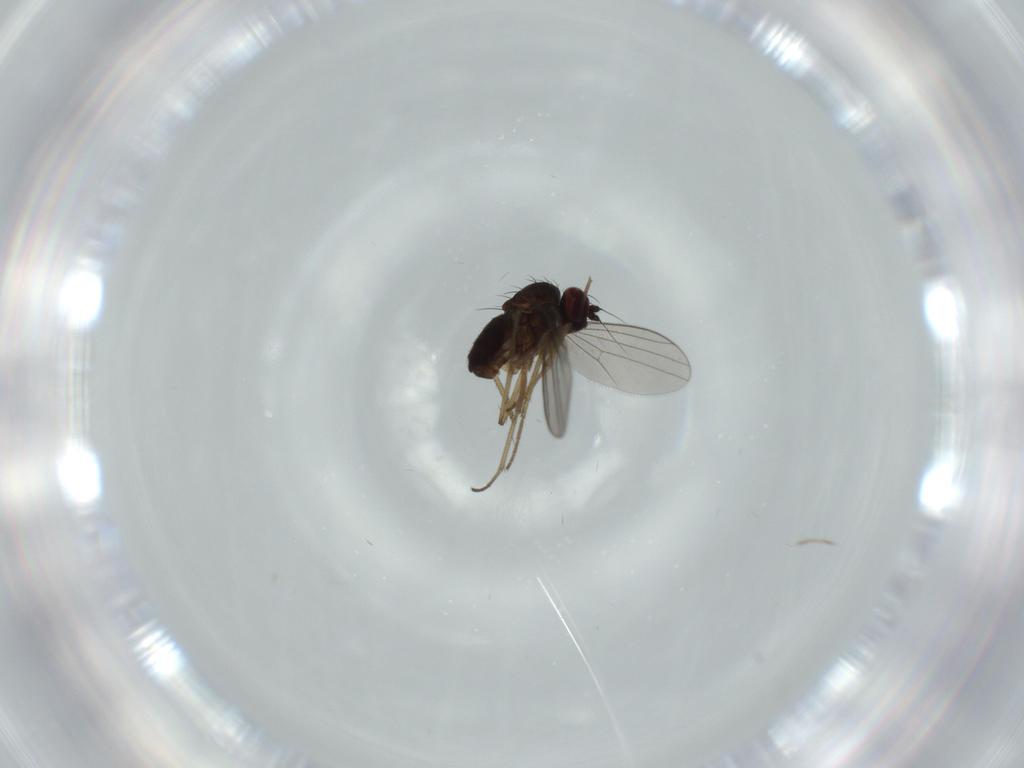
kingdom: Animalia
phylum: Arthropoda
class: Insecta
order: Diptera
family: Dolichopodidae
